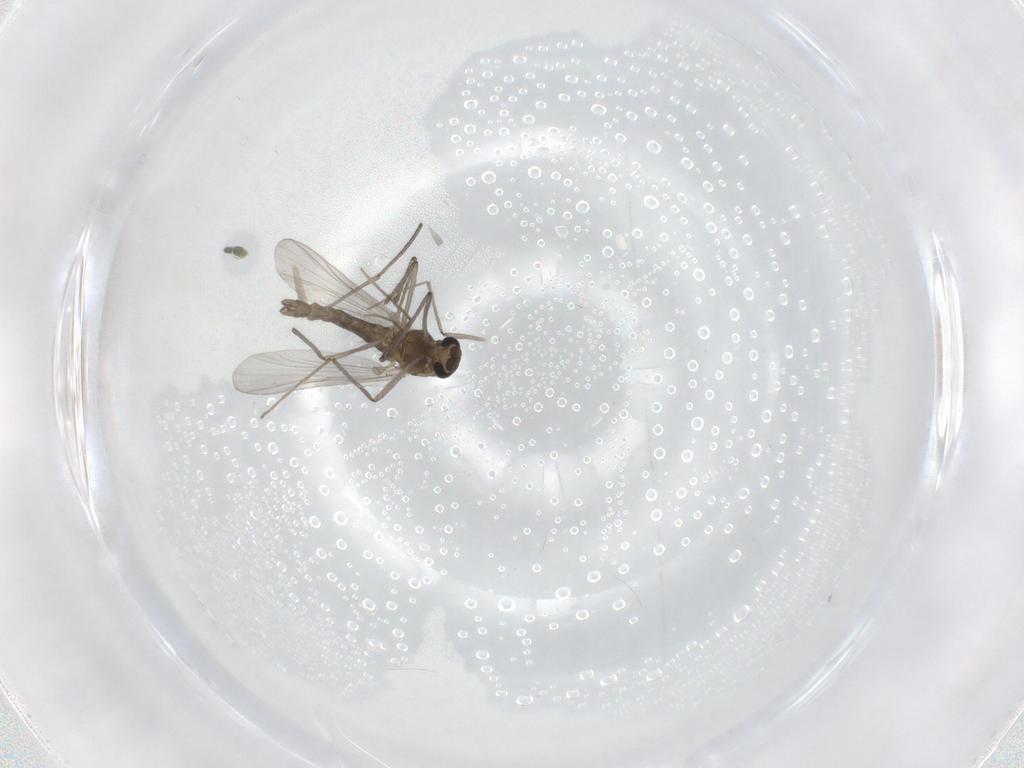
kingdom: Animalia
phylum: Arthropoda
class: Insecta
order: Diptera
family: Chironomidae
